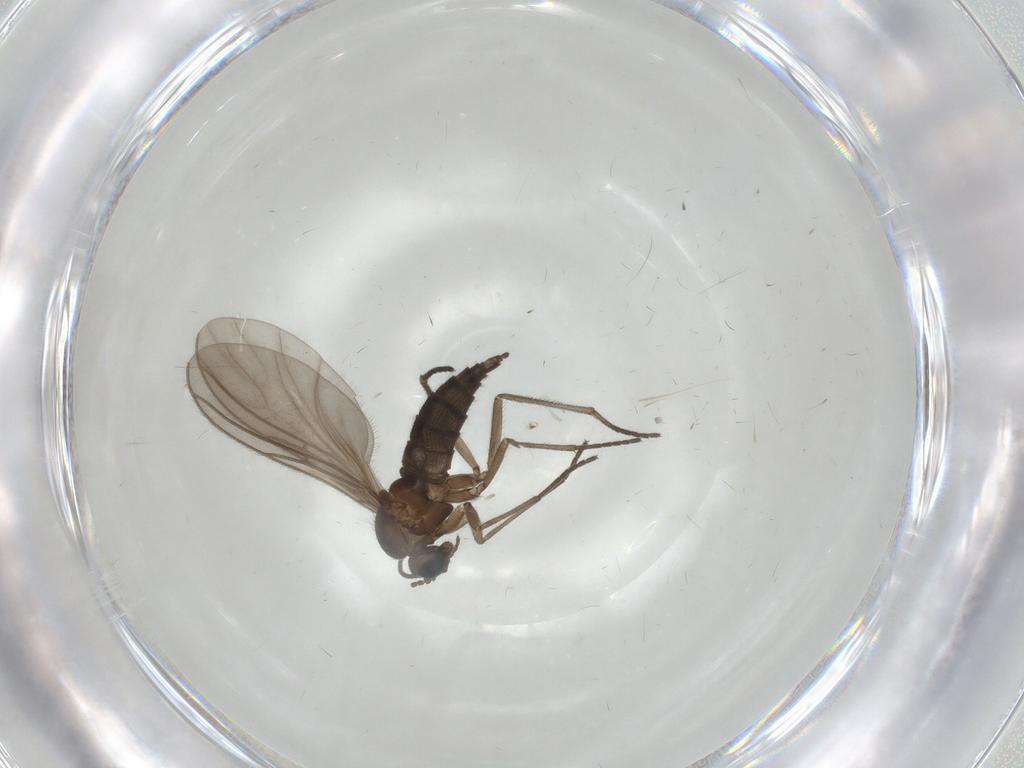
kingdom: Animalia
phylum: Arthropoda
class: Insecta
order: Diptera
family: Sciaridae
